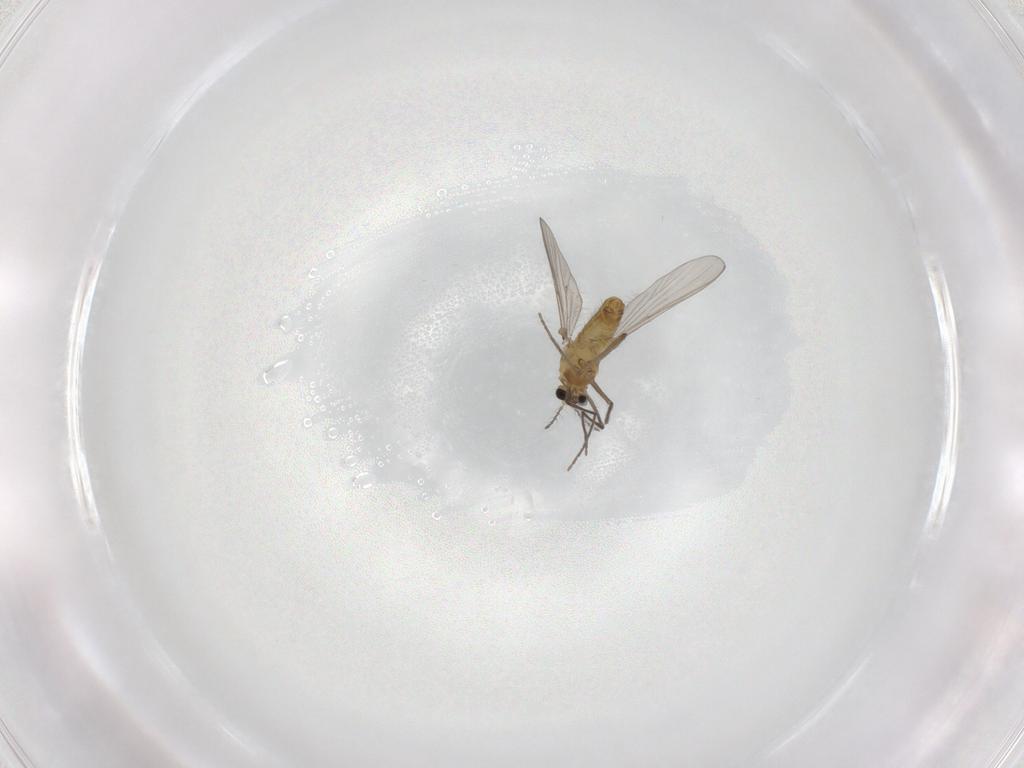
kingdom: Animalia
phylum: Arthropoda
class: Insecta
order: Diptera
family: Chironomidae
